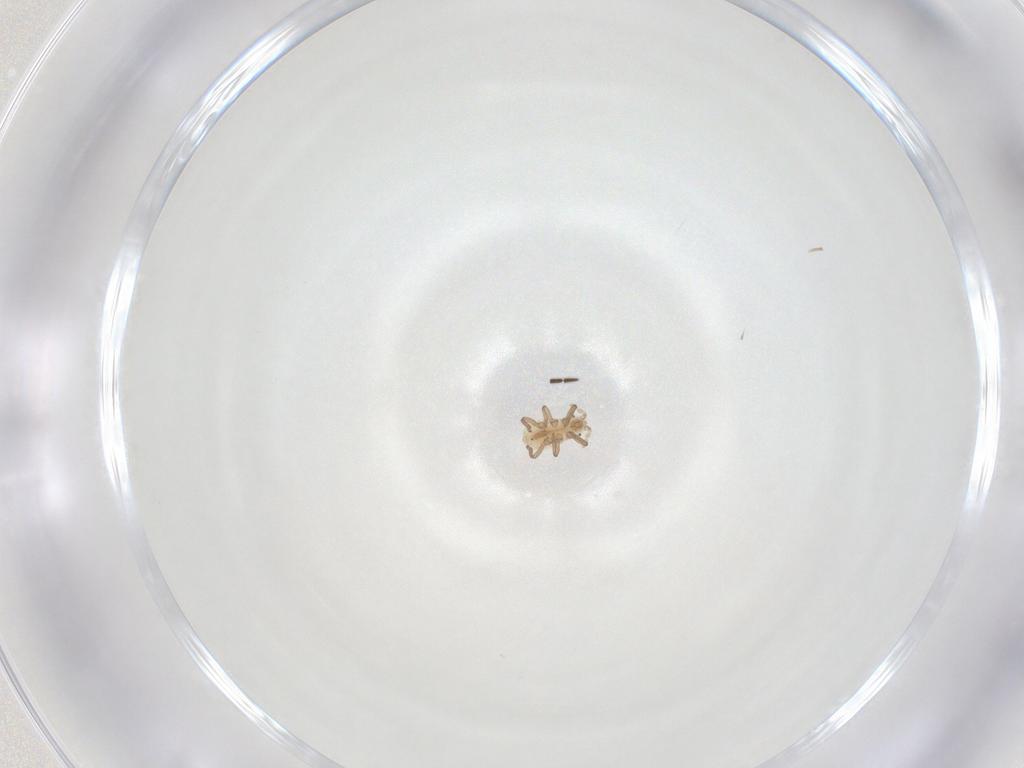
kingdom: Animalia
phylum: Arthropoda
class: Insecta
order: Hemiptera
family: Aphididae
